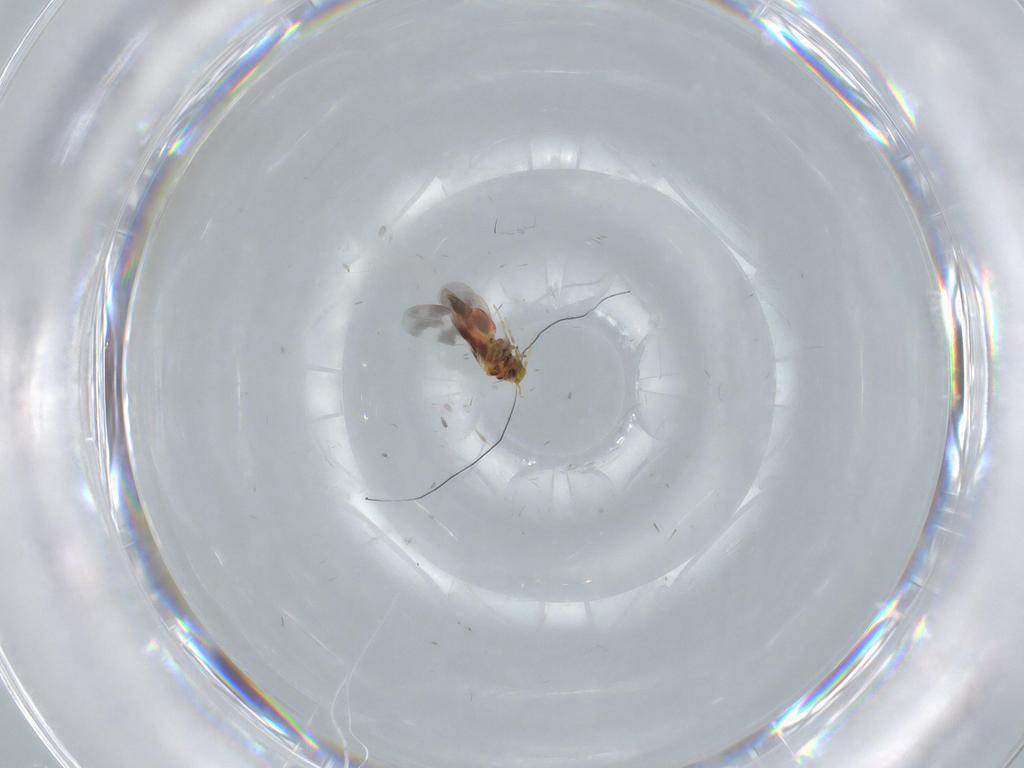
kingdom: Animalia
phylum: Arthropoda
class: Insecta
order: Hemiptera
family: Aleyrodidae
